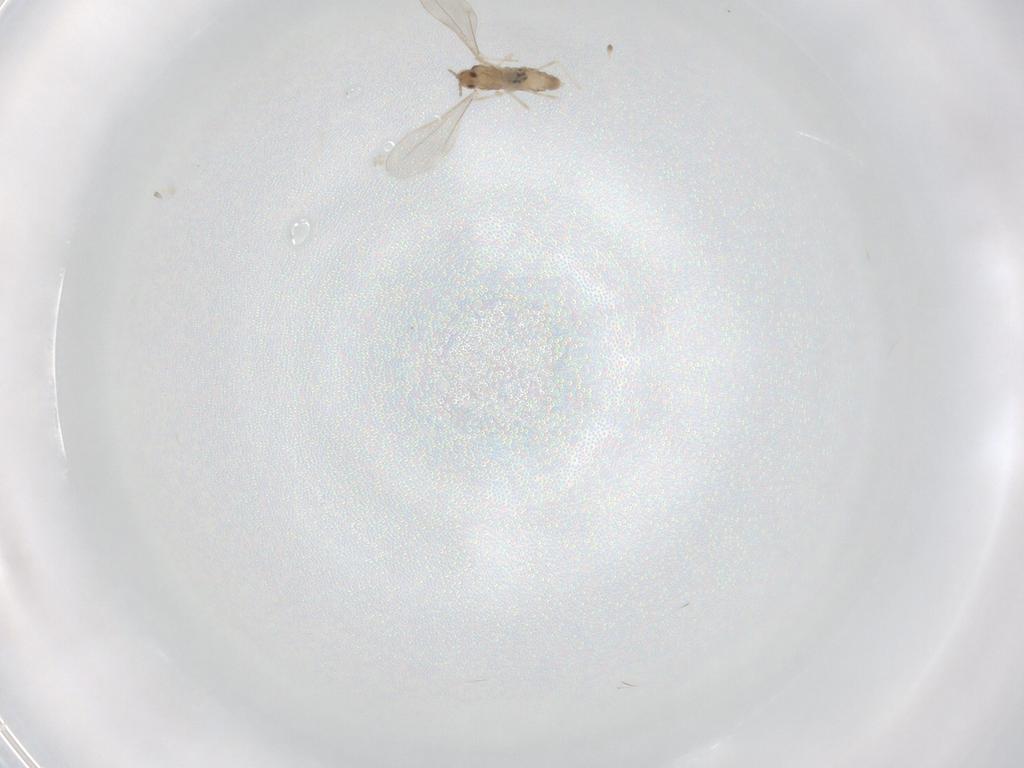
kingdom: Animalia
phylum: Arthropoda
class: Insecta
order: Diptera
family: Cecidomyiidae
